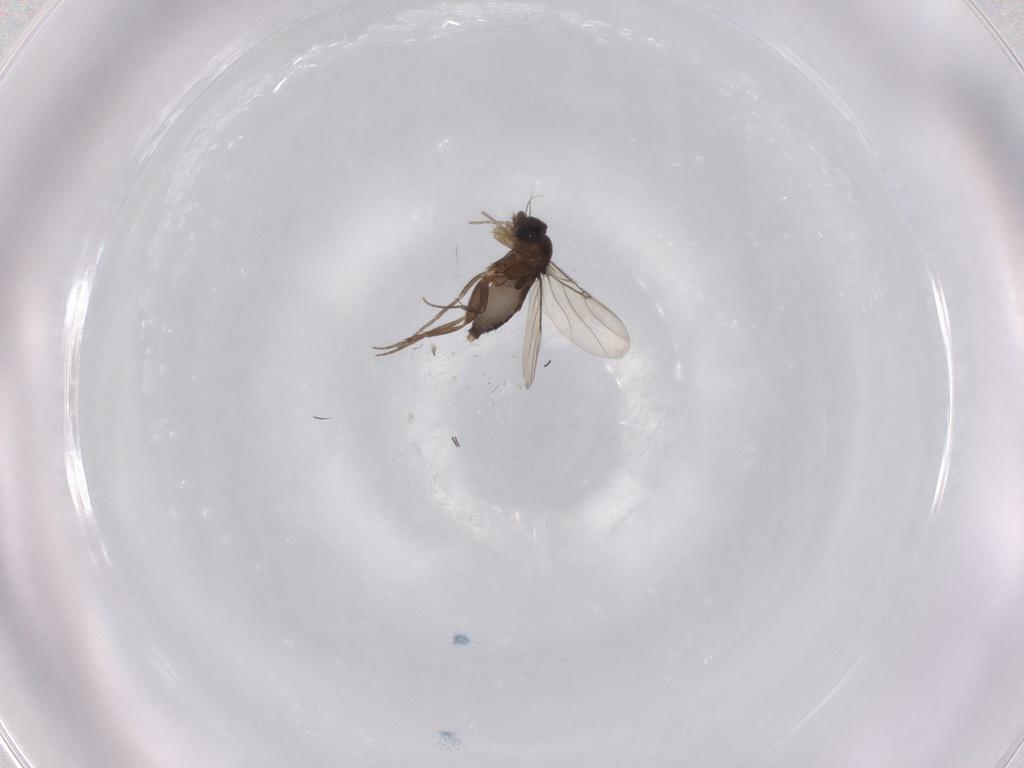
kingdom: Animalia
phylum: Arthropoda
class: Insecta
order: Diptera
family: Phoridae
